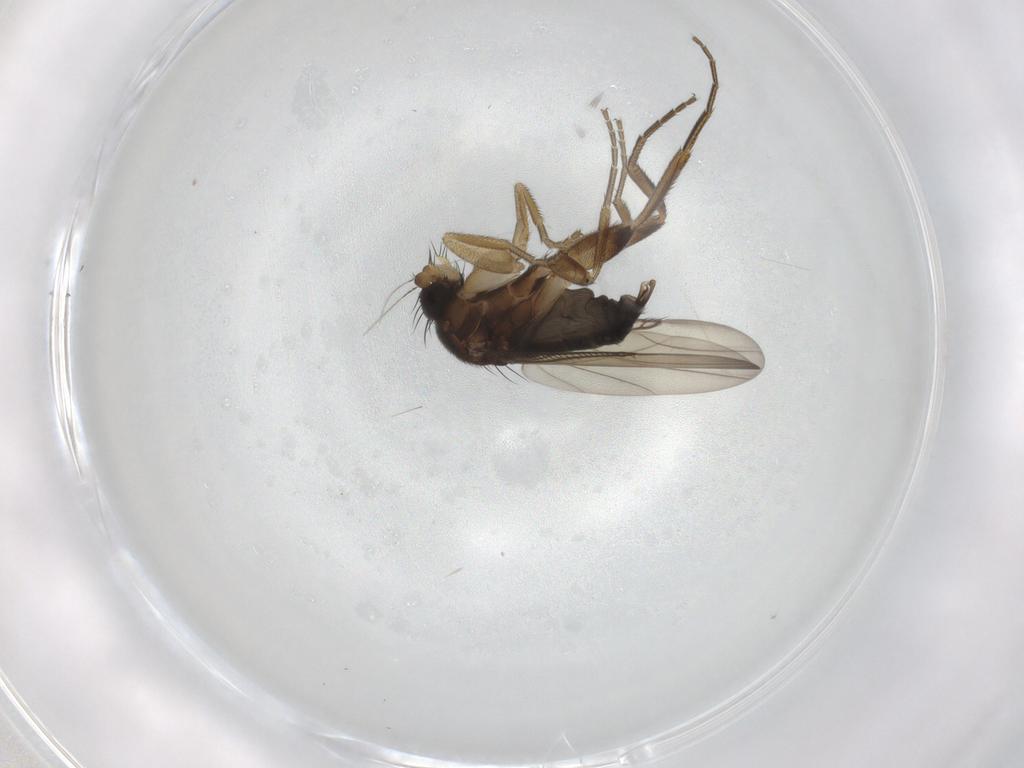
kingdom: Animalia
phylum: Arthropoda
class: Insecta
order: Diptera
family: Phoridae
